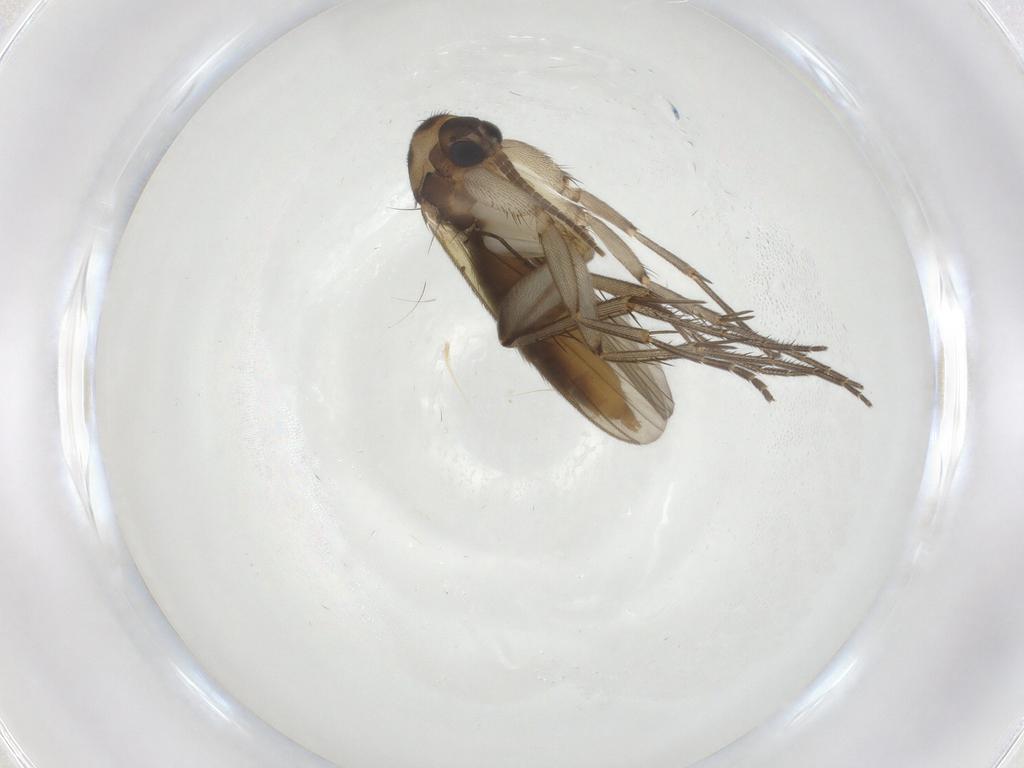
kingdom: Animalia
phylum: Arthropoda
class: Insecta
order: Diptera
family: Mycetophilidae
